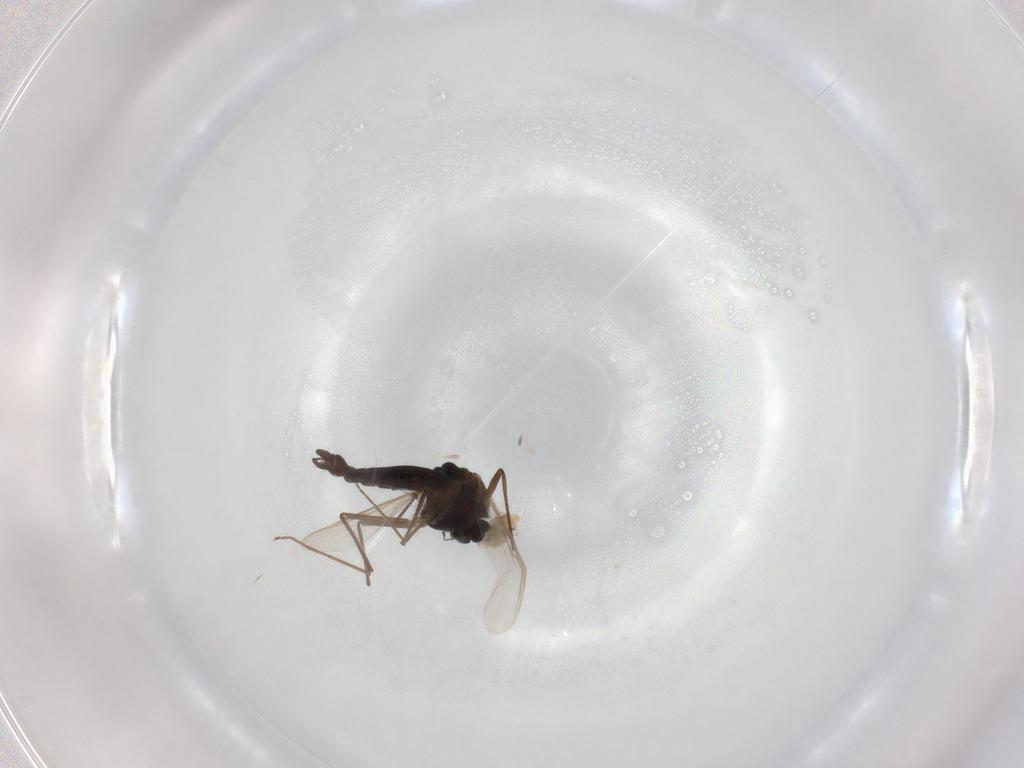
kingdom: Animalia
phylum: Arthropoda
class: Insecta
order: Diptera
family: Chironomidae
